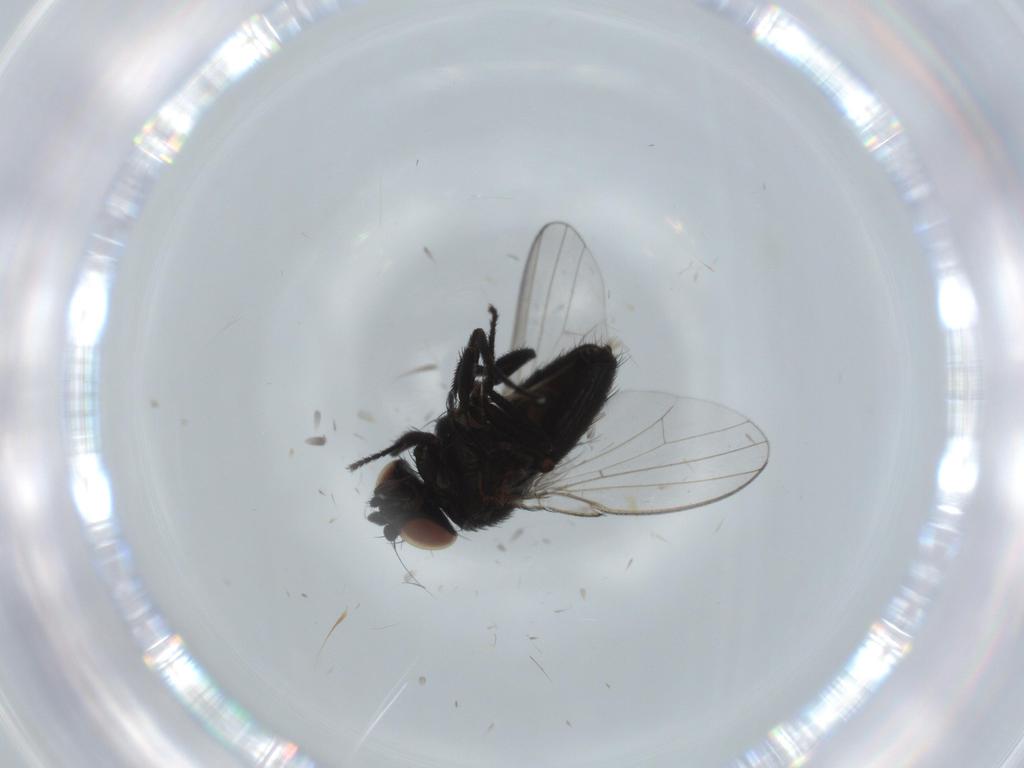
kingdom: Animalia
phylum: Arthropoda
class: Insecta
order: Diptera
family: Milichiidae
